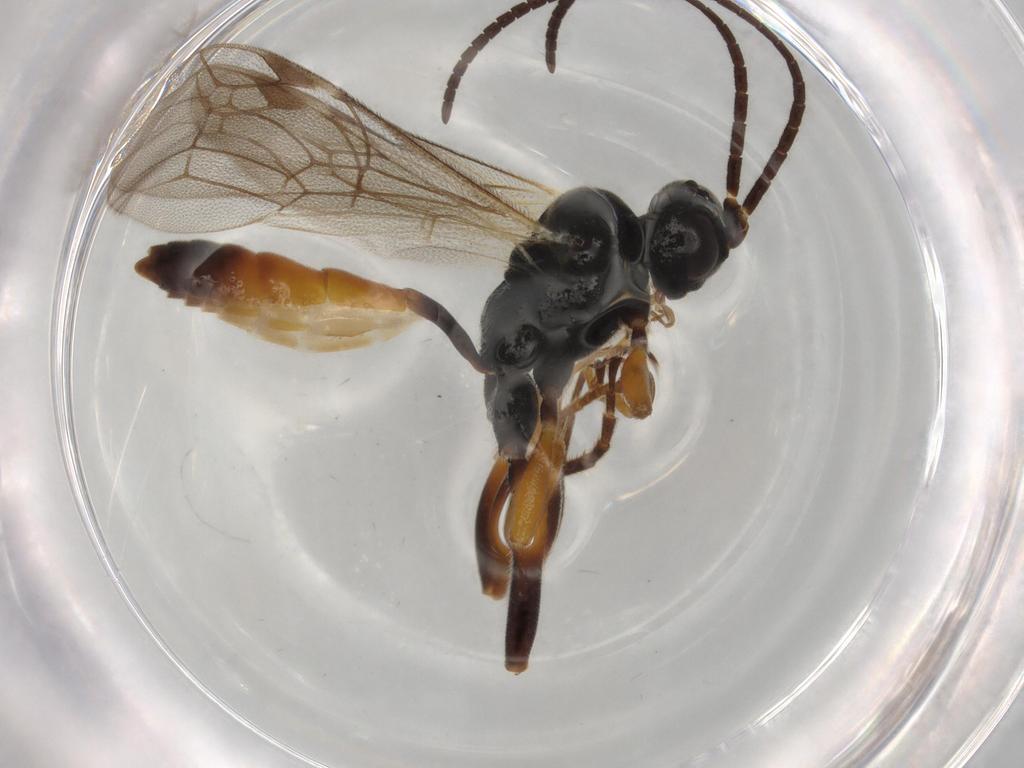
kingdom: Animalia
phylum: Arthropoda
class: Insecta
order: Hymenoptera
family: Ichneumonidae
